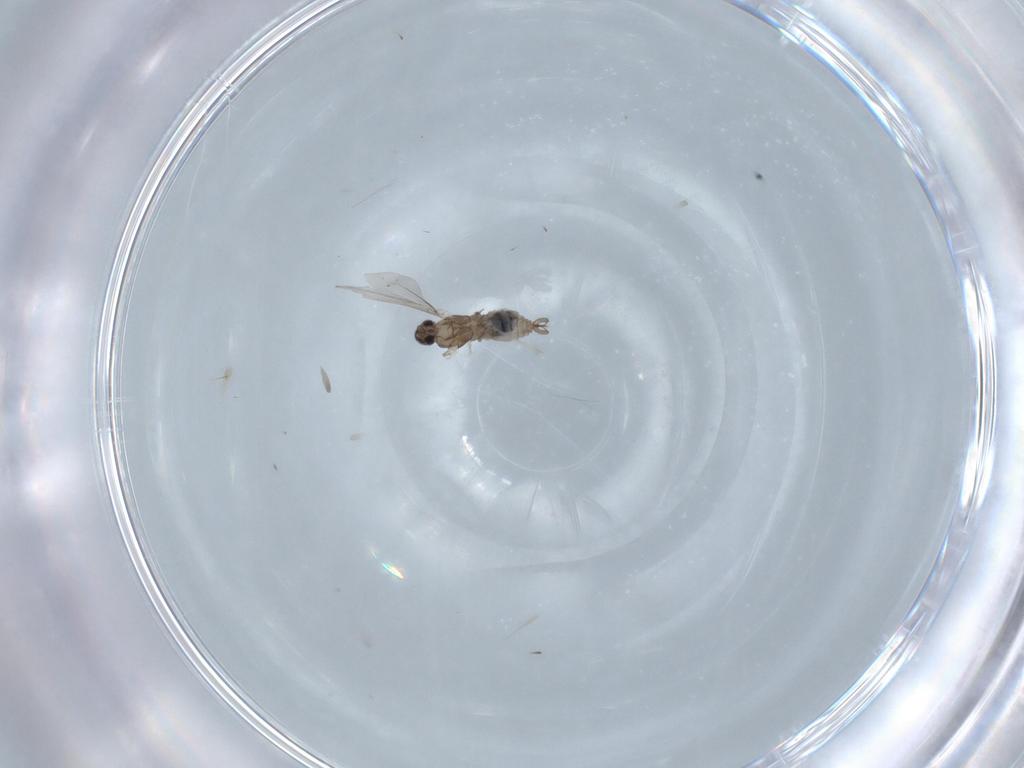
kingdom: Animalia
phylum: Arthropoda
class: Insecta
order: Diptera
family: Cecidomyiidae
